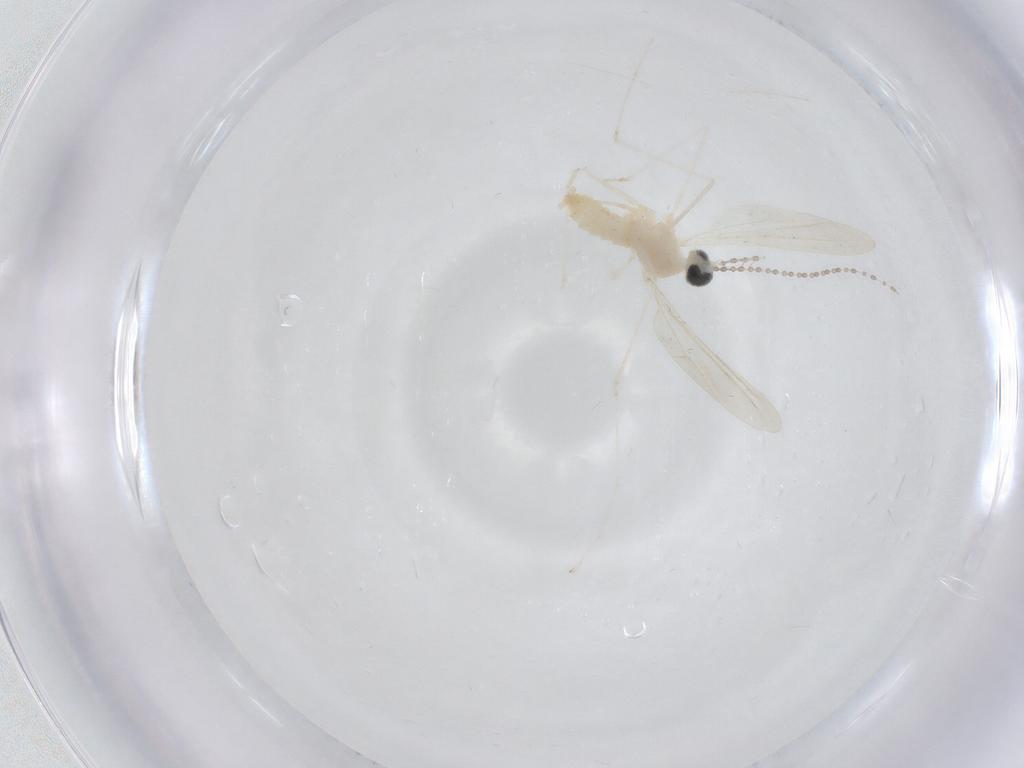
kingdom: Animalia
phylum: Arthropoda
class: Insecta
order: Diptera
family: Cecidomyiidae
